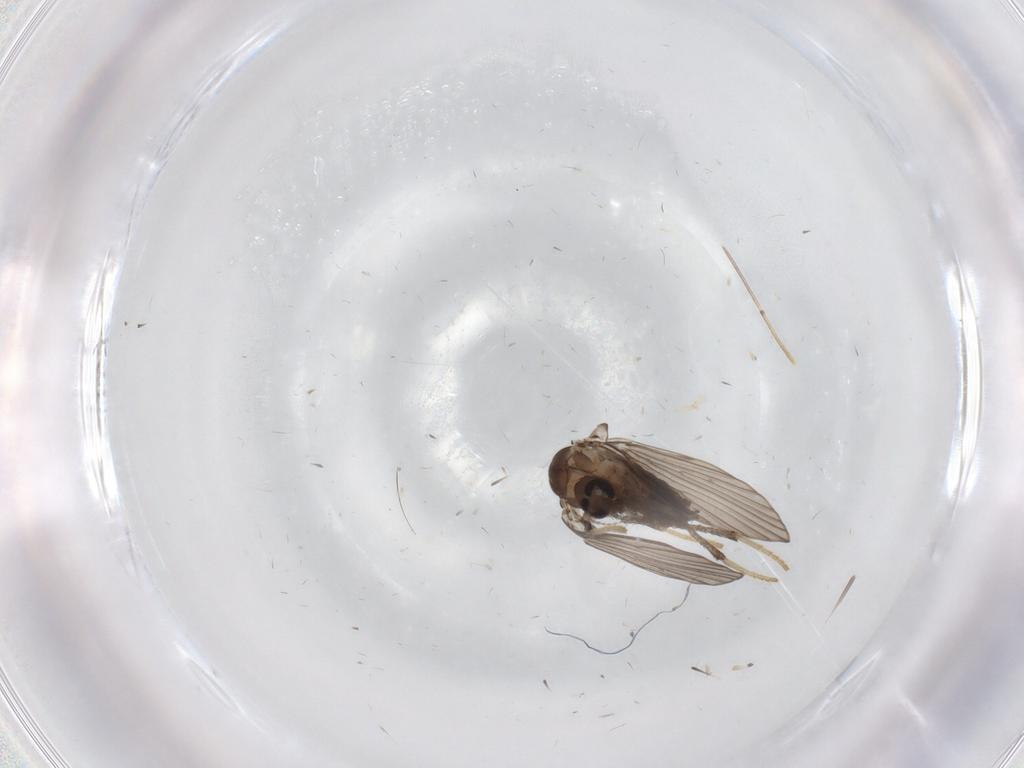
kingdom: Animalia
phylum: Arthropoda
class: Insecta
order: Diptera
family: Psychodidae
